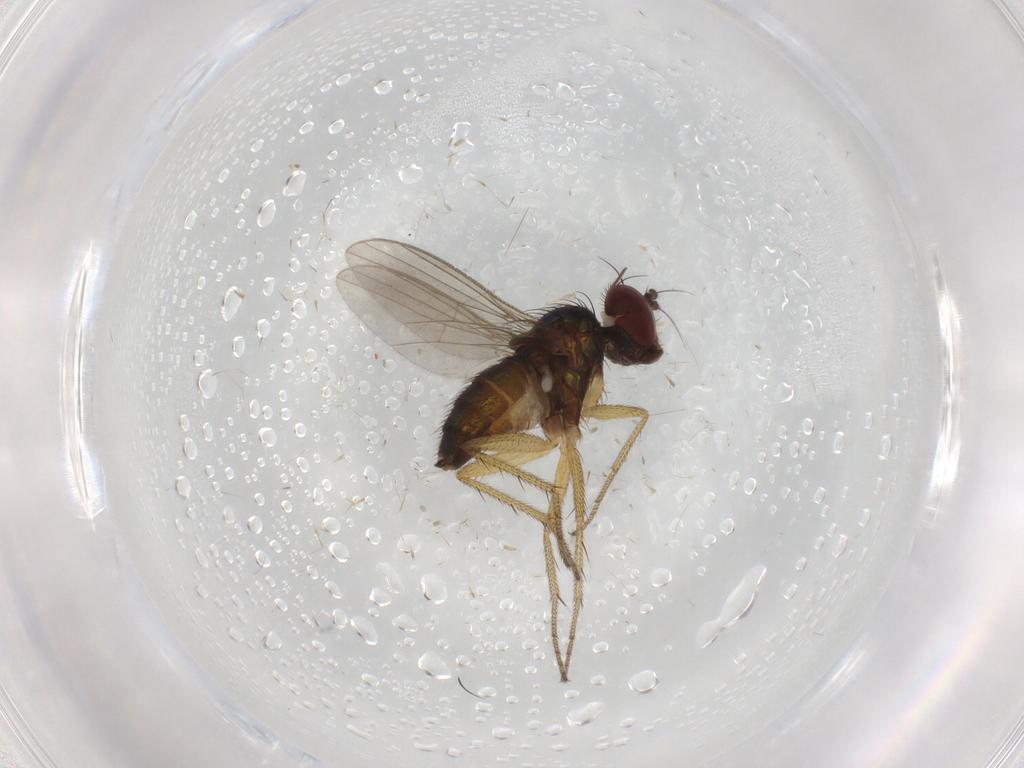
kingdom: Animalia
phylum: Arthropoda
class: Insecta
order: Diptera
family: Dolichopodidae
